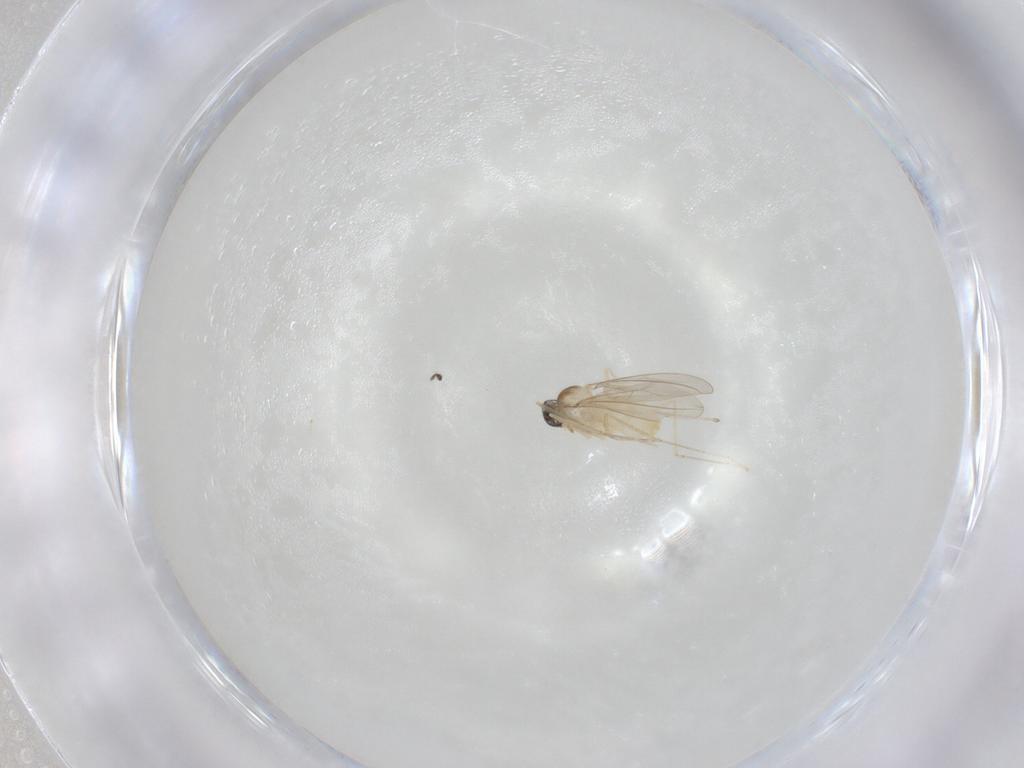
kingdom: Animalia
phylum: Arthropoda
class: Insecta
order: Diptera
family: Cecidomyiidae
